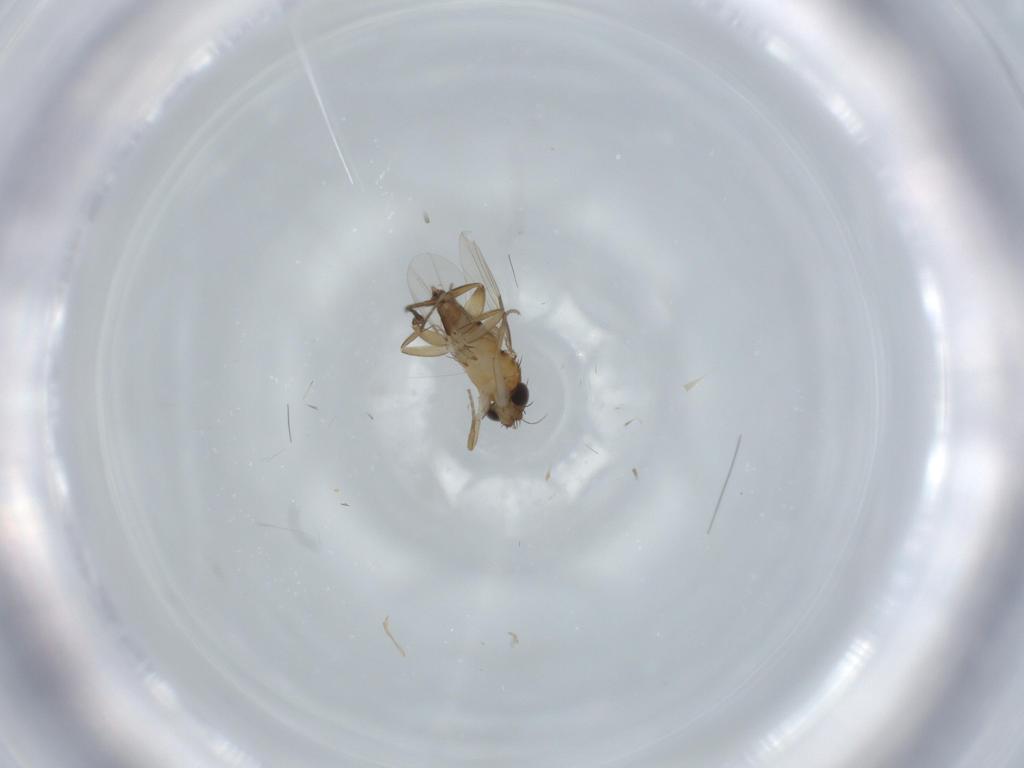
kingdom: Animalia
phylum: Arthropoda
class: Insecta
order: Diptera
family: Phoridae
